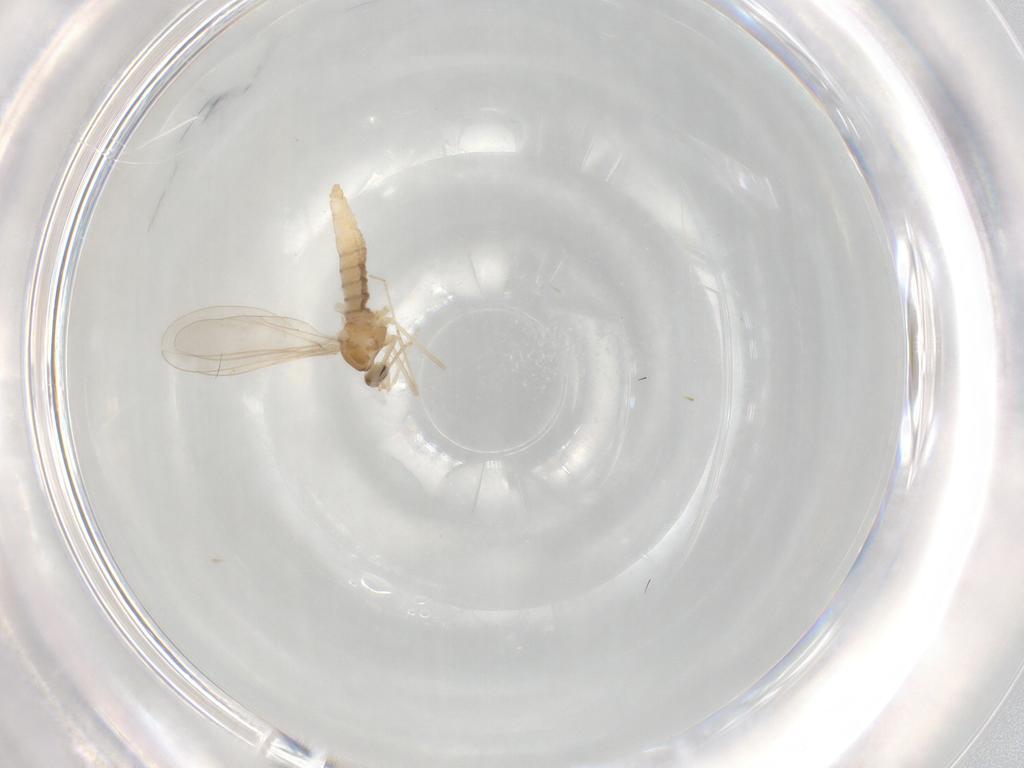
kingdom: Animalia
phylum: Arthropoda
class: Insecta
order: Diptera
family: Cecidomyiidae
